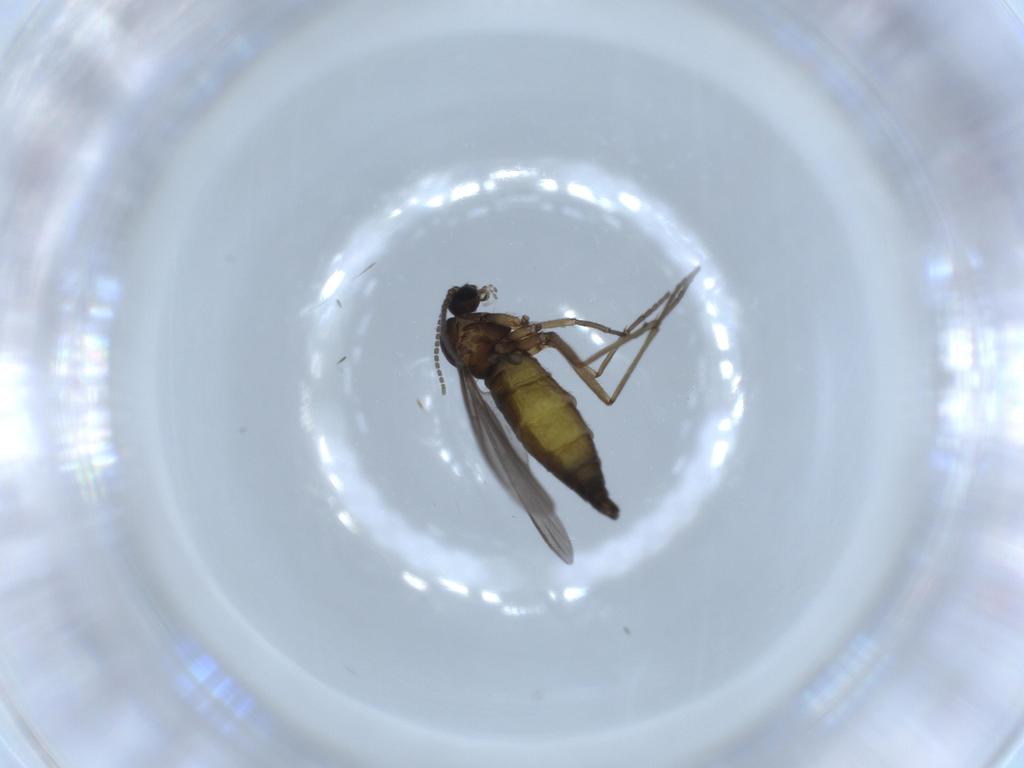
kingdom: Animalia
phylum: Arthropoda
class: Insecta
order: Diptera
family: Sciaridae
